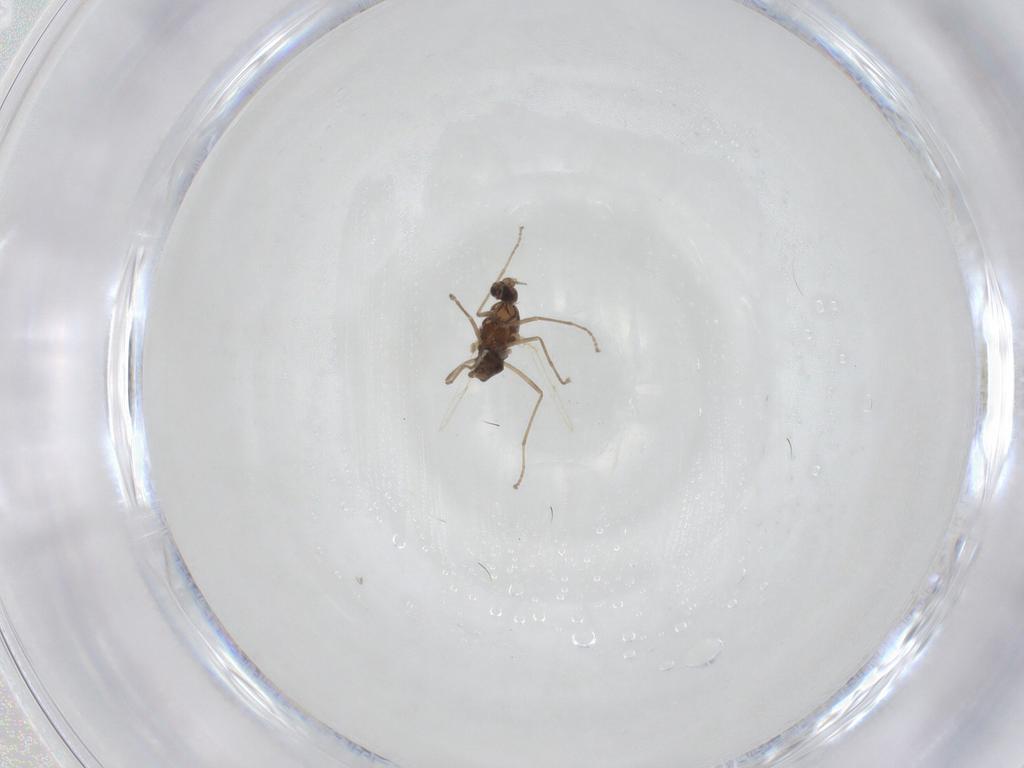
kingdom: Animalia
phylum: Arthropoda
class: Insecta
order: Diptera
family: Cecidomyiidae
